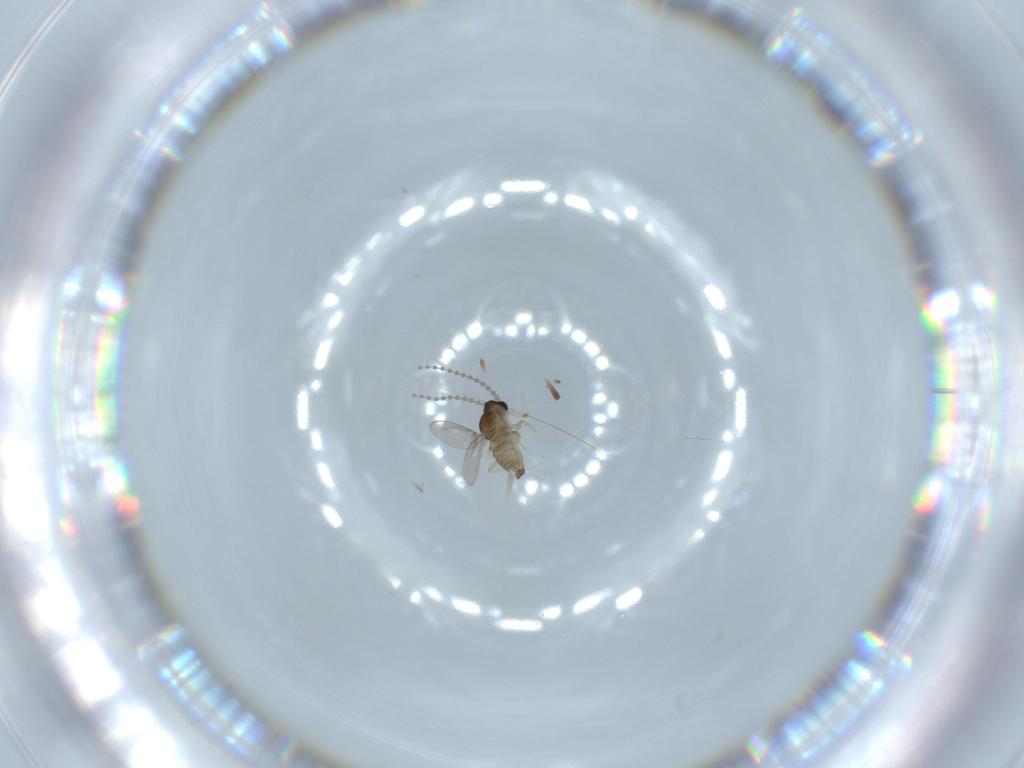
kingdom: Animalia
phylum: Arthropoda
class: Insecta
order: Diptera
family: Cecidomyiidae
